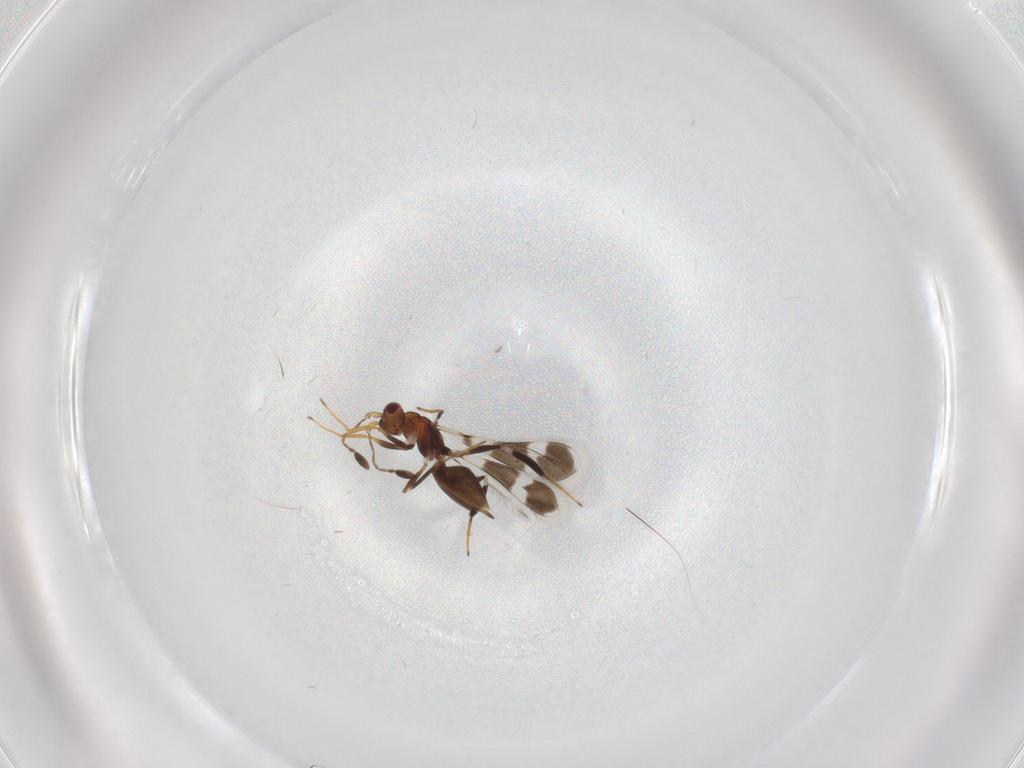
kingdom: Animalia
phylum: Arthropoda
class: Insecta
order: Hymenoptera
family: Mymaridae
